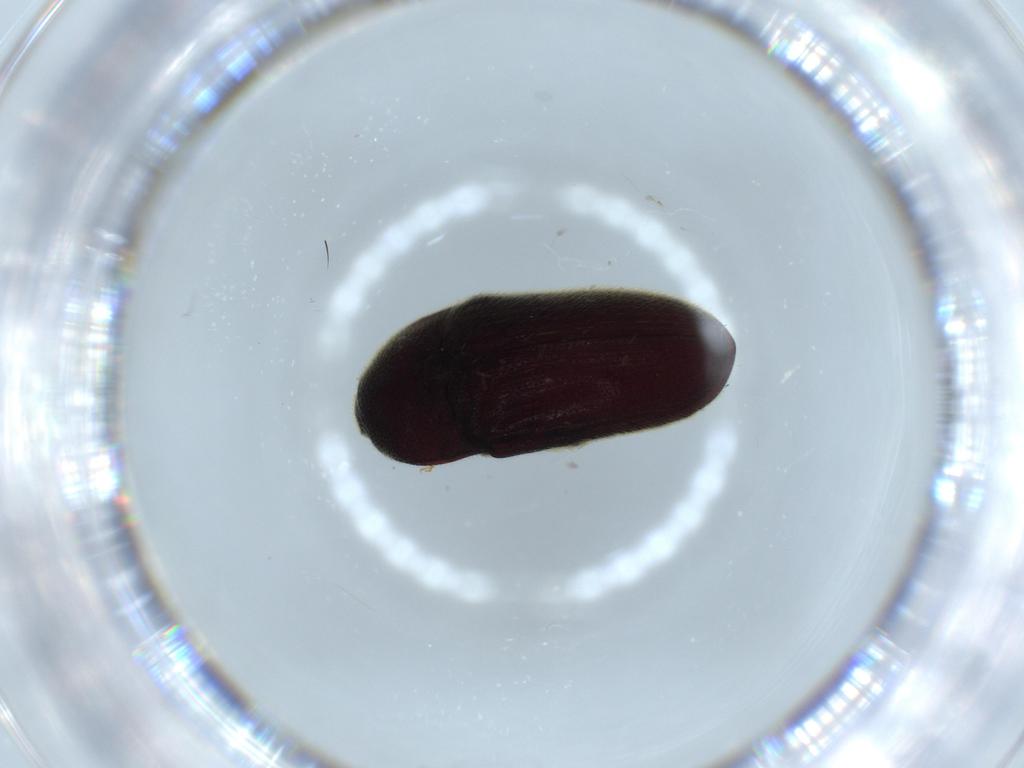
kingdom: Animalia
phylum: Arthropoda
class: Insecta
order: Coleoptera
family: Throscidae
